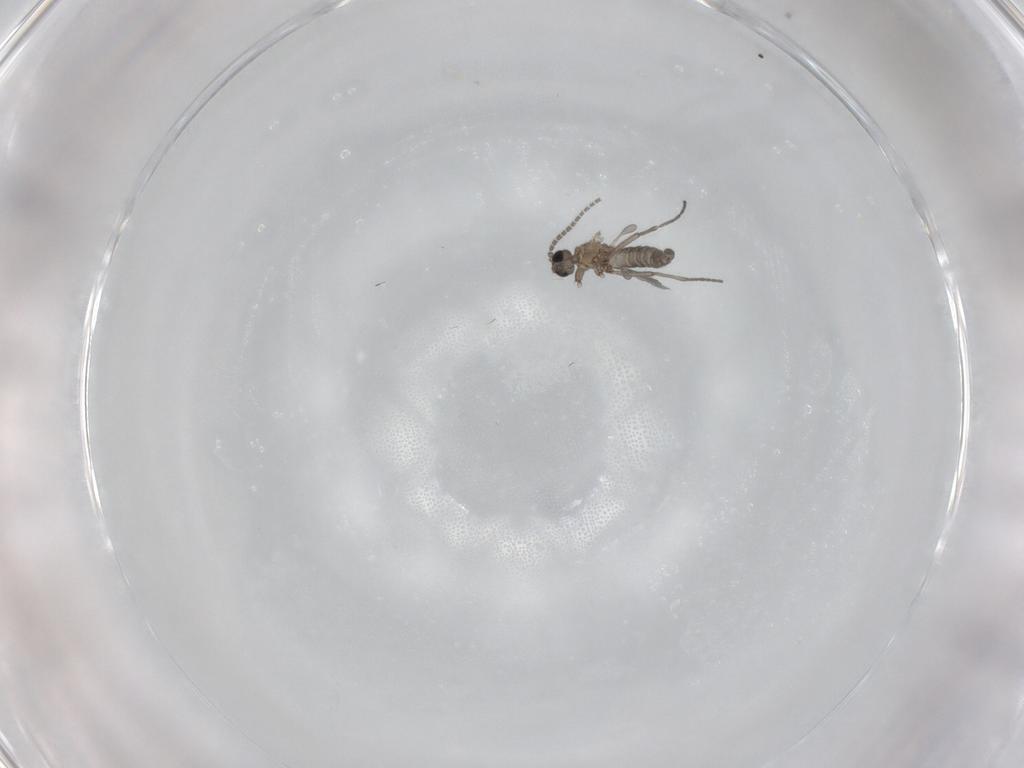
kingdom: Animalia
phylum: Arthropoda
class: Insecta
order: Diptera
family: Sciaridae
